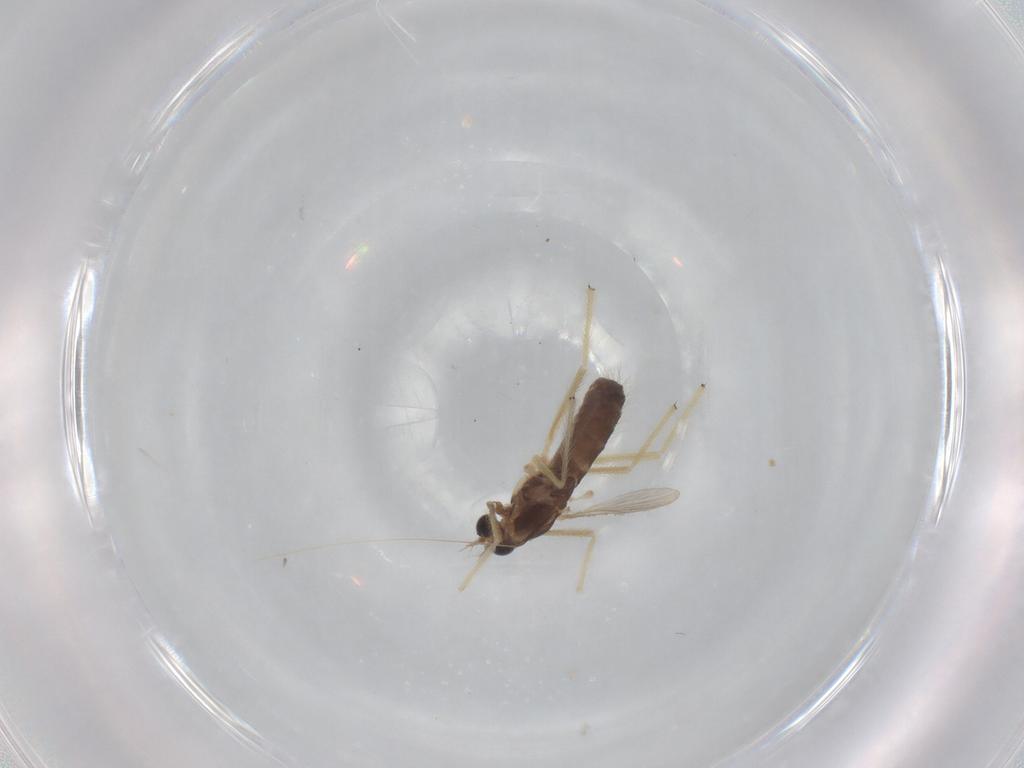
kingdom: Animalia
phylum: Arthropoda
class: Insecta
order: Diptera
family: Chironomidae
